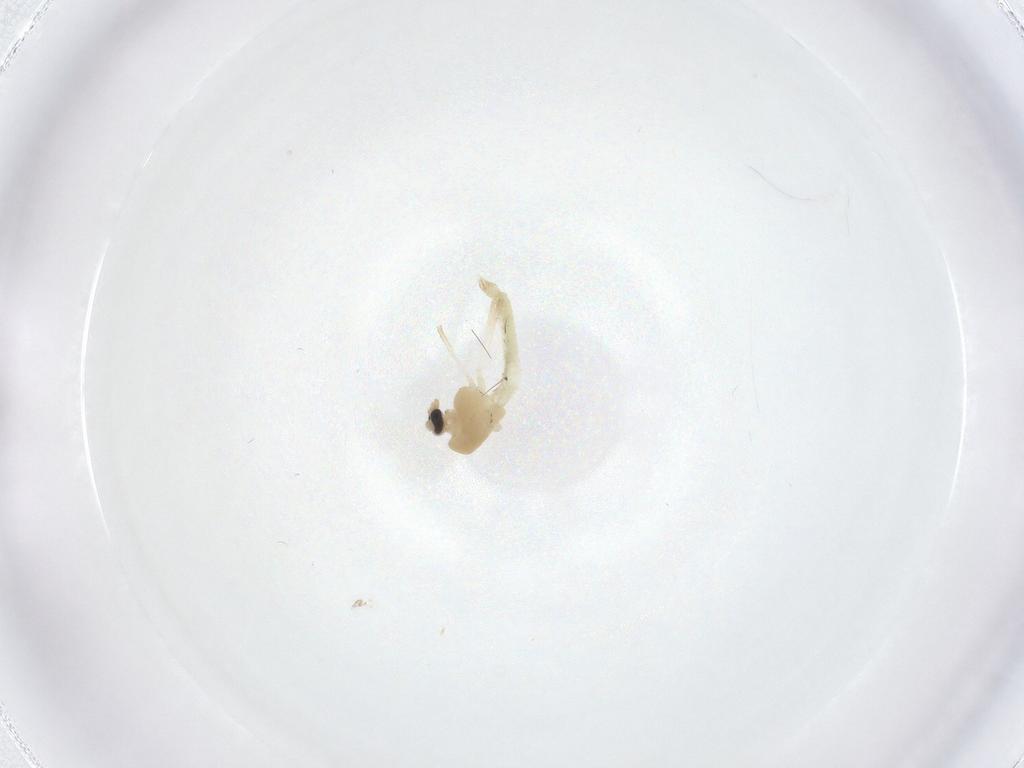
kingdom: Animalia
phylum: Arthropoda
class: Insecta
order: Diptera
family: Chironomidae
